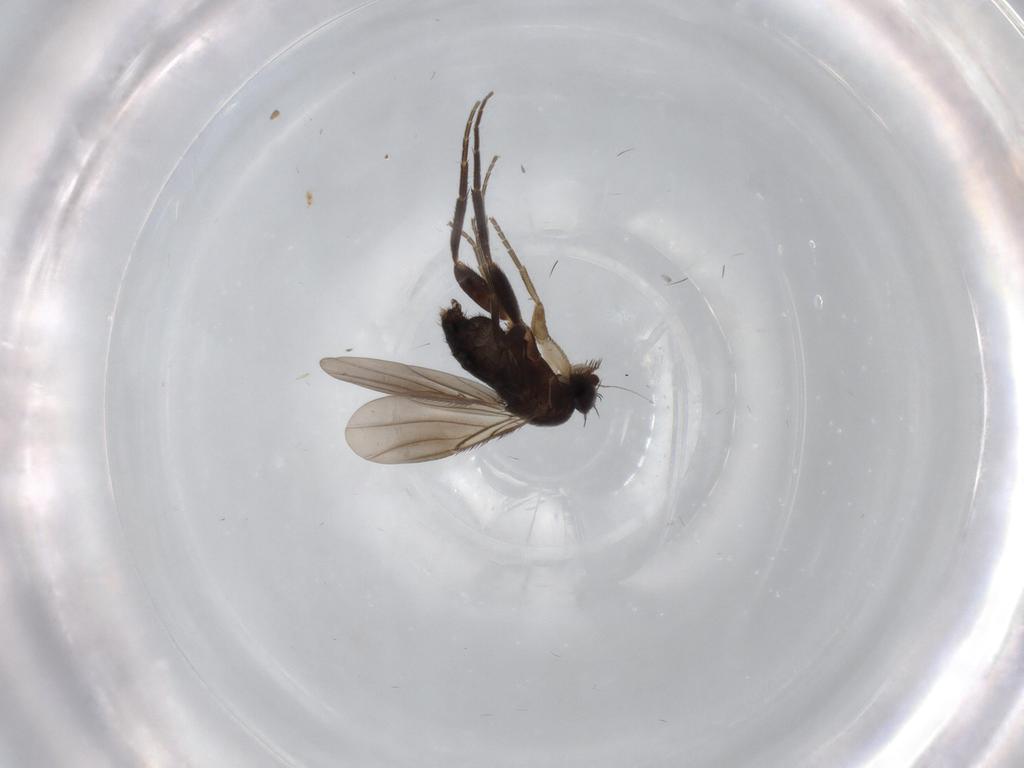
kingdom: Animalia
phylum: Arthropoda
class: Insecta
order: Diptera
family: Phoridae
